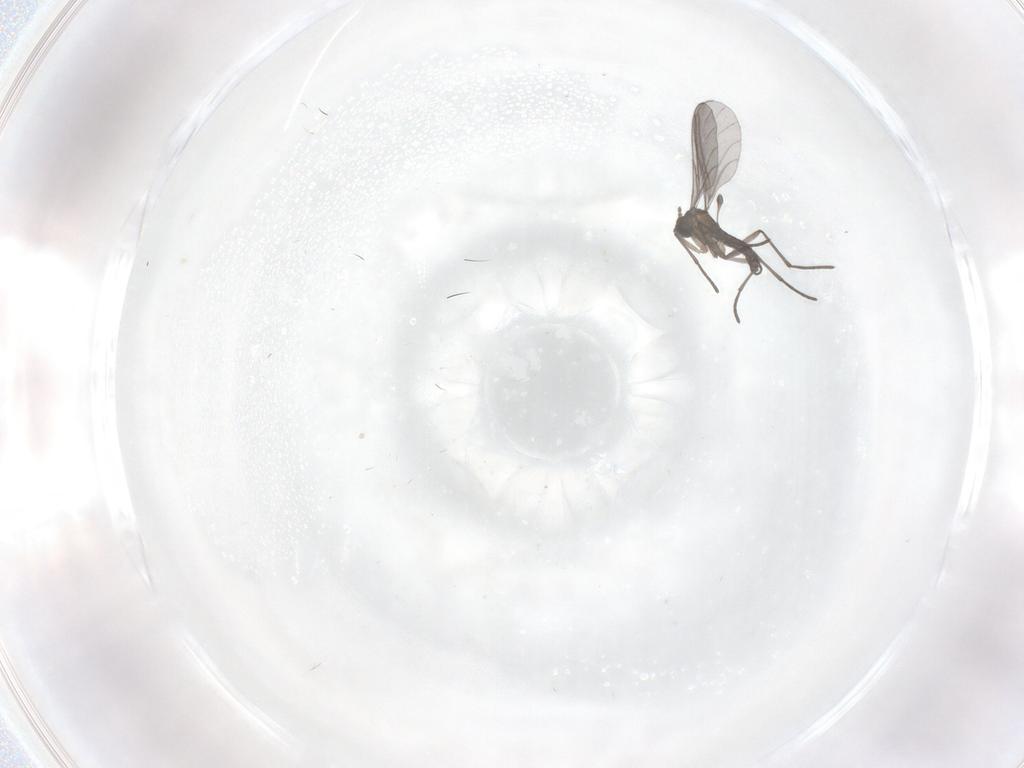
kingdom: Animalia
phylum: Arthropoda
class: Insecta
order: Diptera
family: Sciaridae
